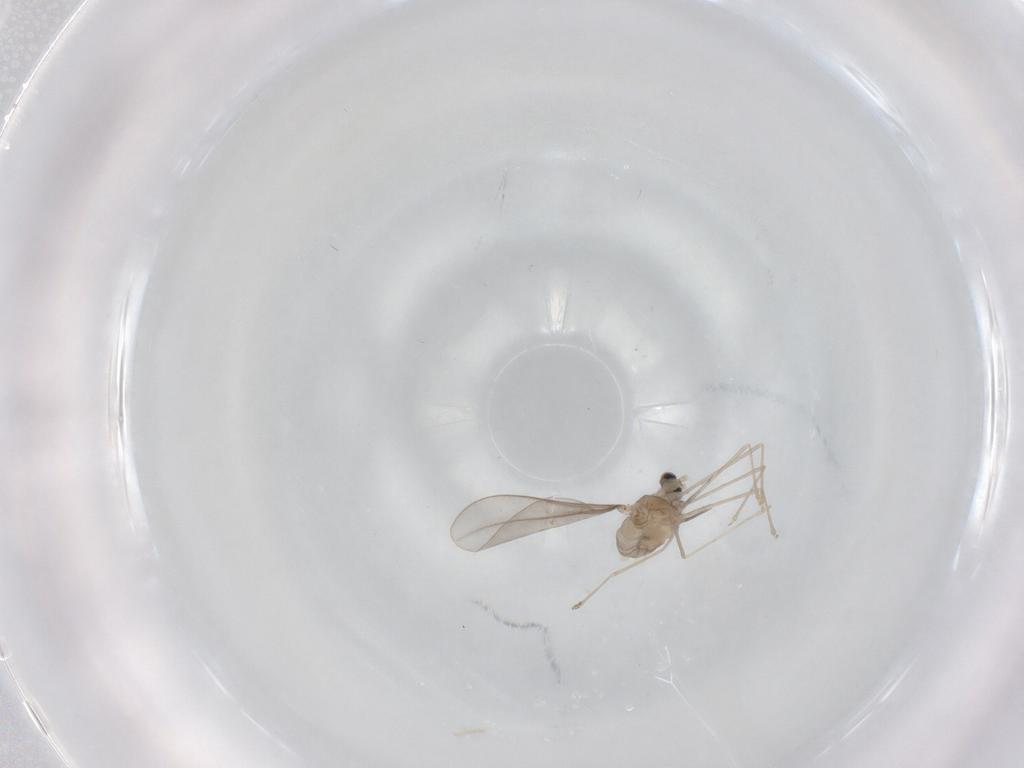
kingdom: Animalia
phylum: Arthropoda
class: Insecta
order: Diptera
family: Cecidomyiidae
